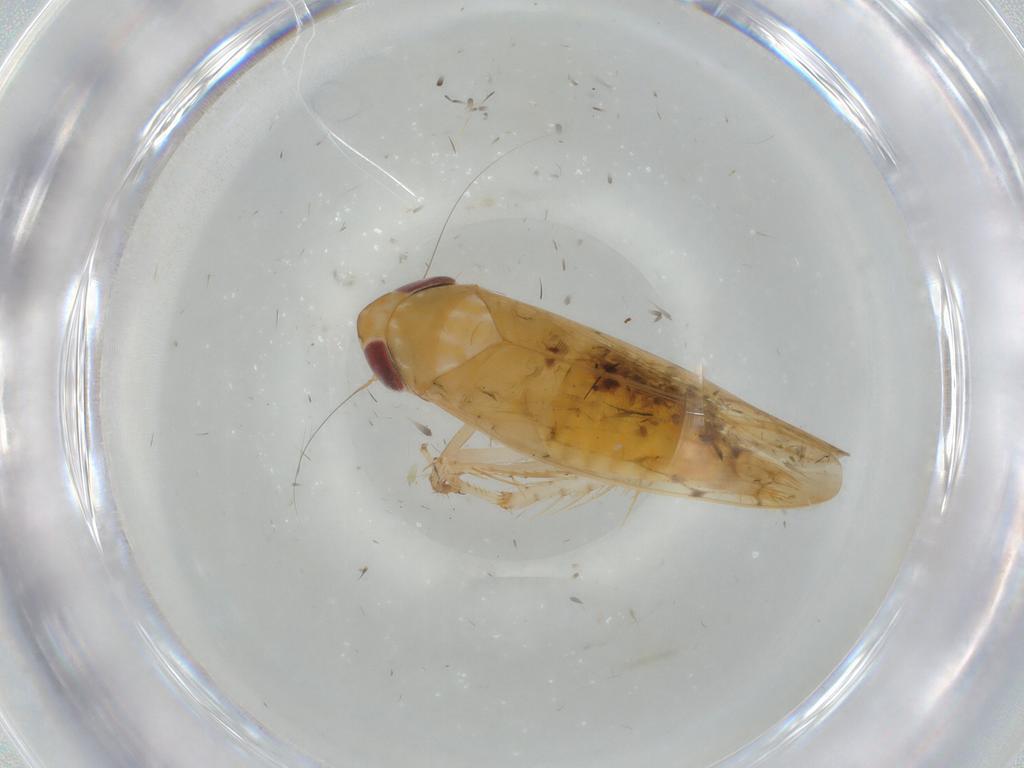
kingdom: Animalia
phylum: Arthropoda
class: Insecta
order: Hemiptera
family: Cicadellidae
